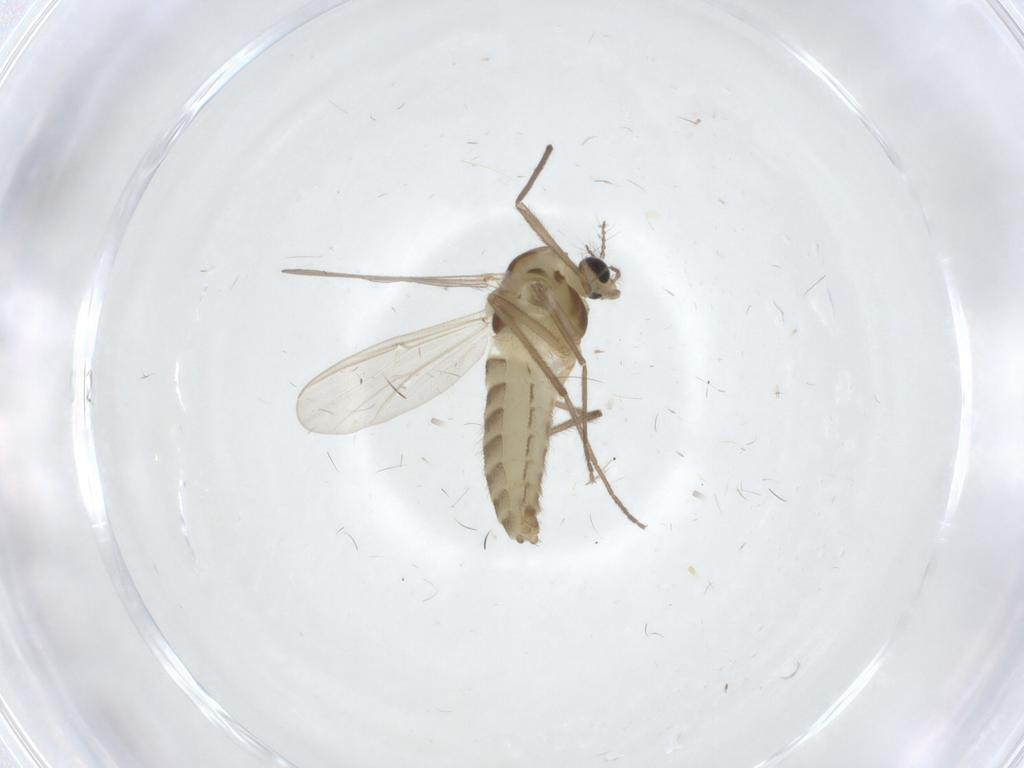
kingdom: Animalia
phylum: Arthropoda
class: Insecta
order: Diptera
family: Chironomidae
